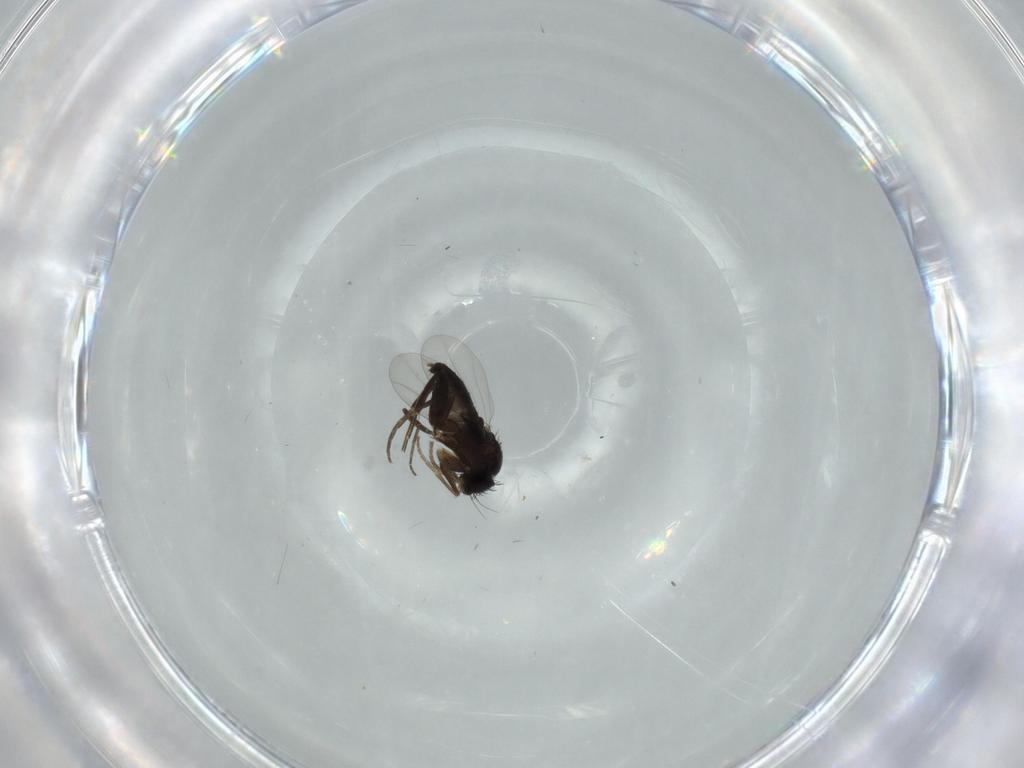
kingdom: Animalia
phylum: Arthropoda
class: Insecta
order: Diptera
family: Phoridae
